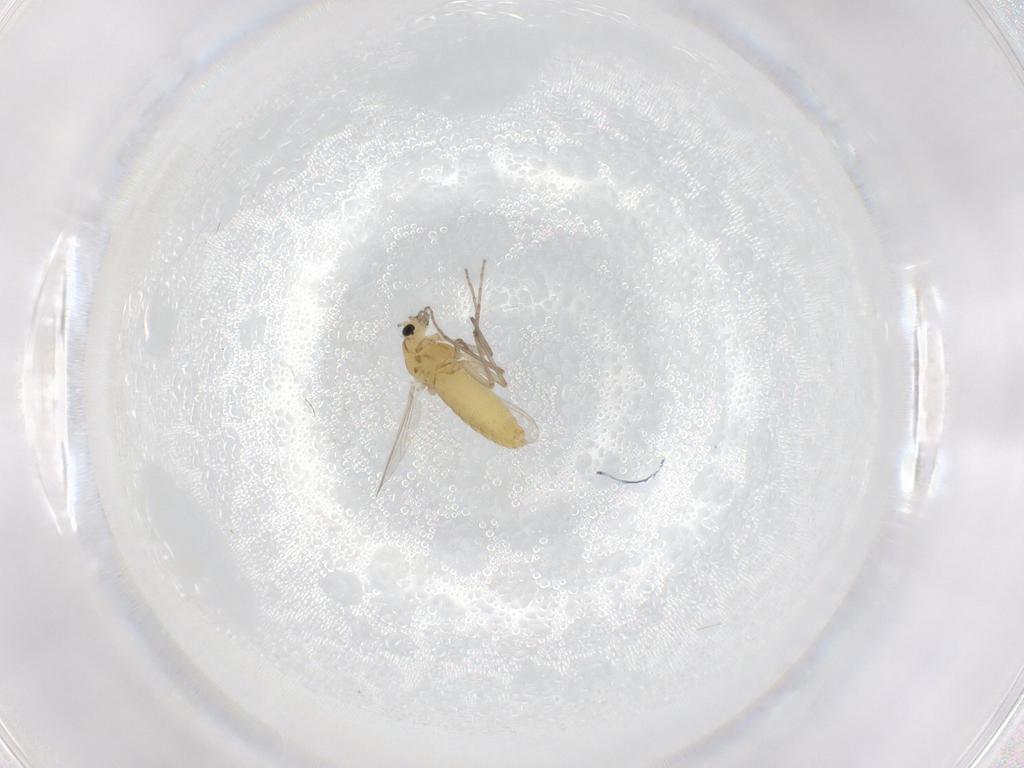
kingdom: Animalia
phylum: Arthropoda
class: Insecta
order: Diptera
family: Chironomidae
